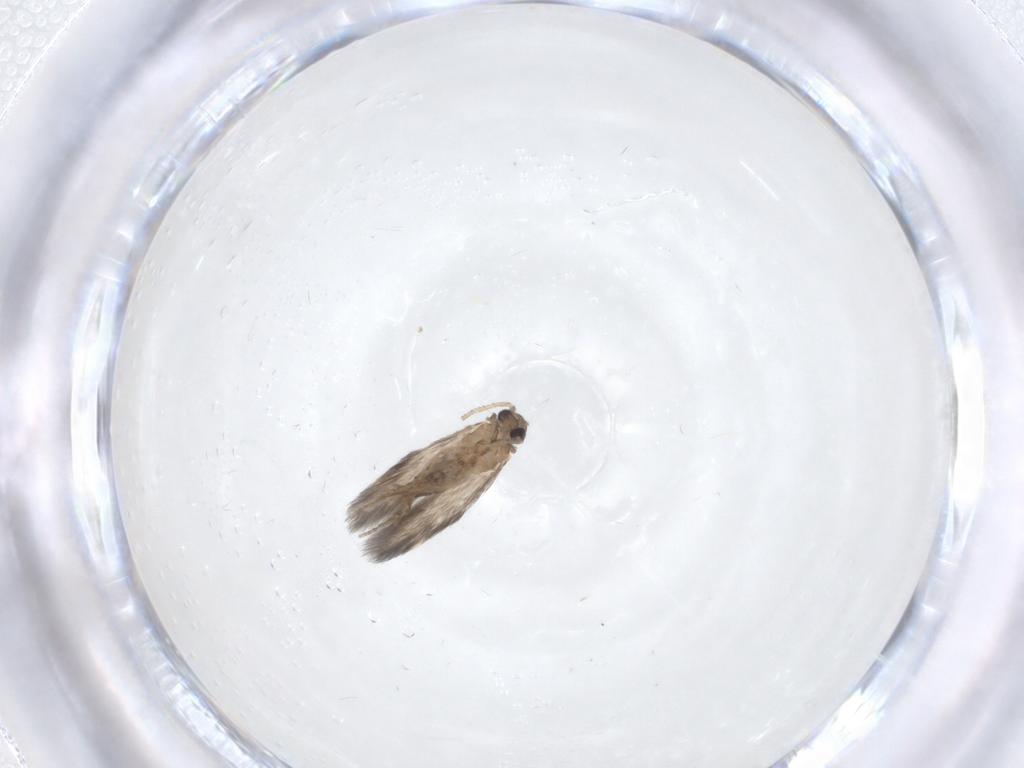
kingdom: Animalia
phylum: Arthropoda
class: Insecta
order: Trichoptera
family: Hydroptilidae
